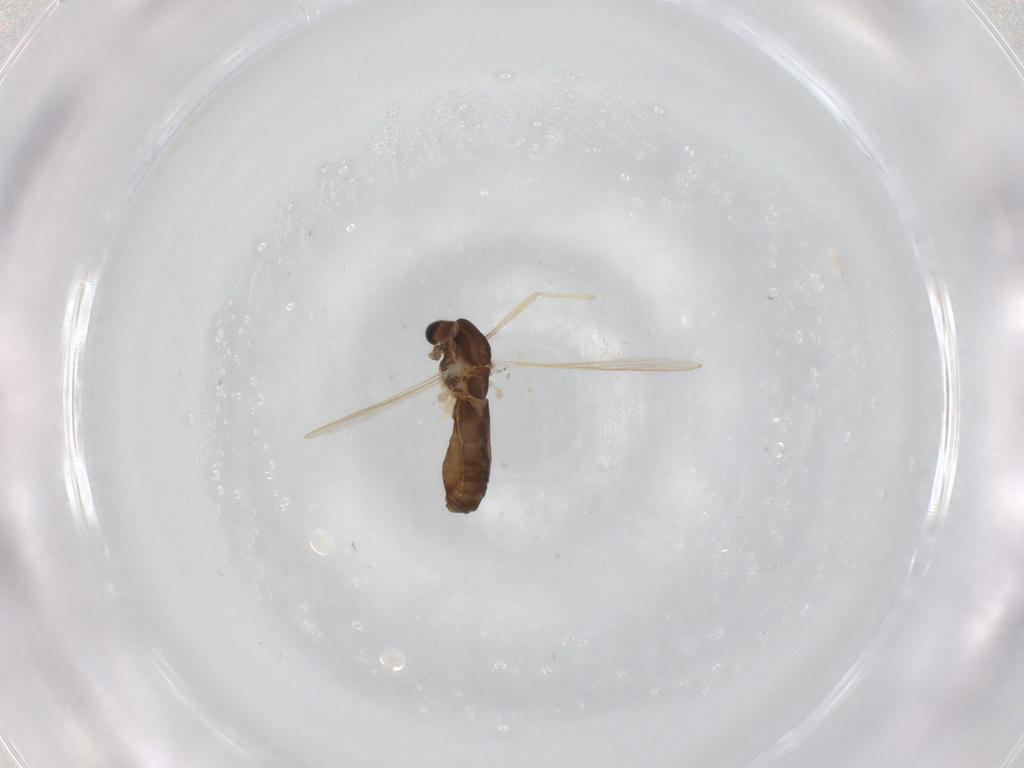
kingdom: Animalia
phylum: Arthropoda
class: Insecta
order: Diptera
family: Chironomidae
